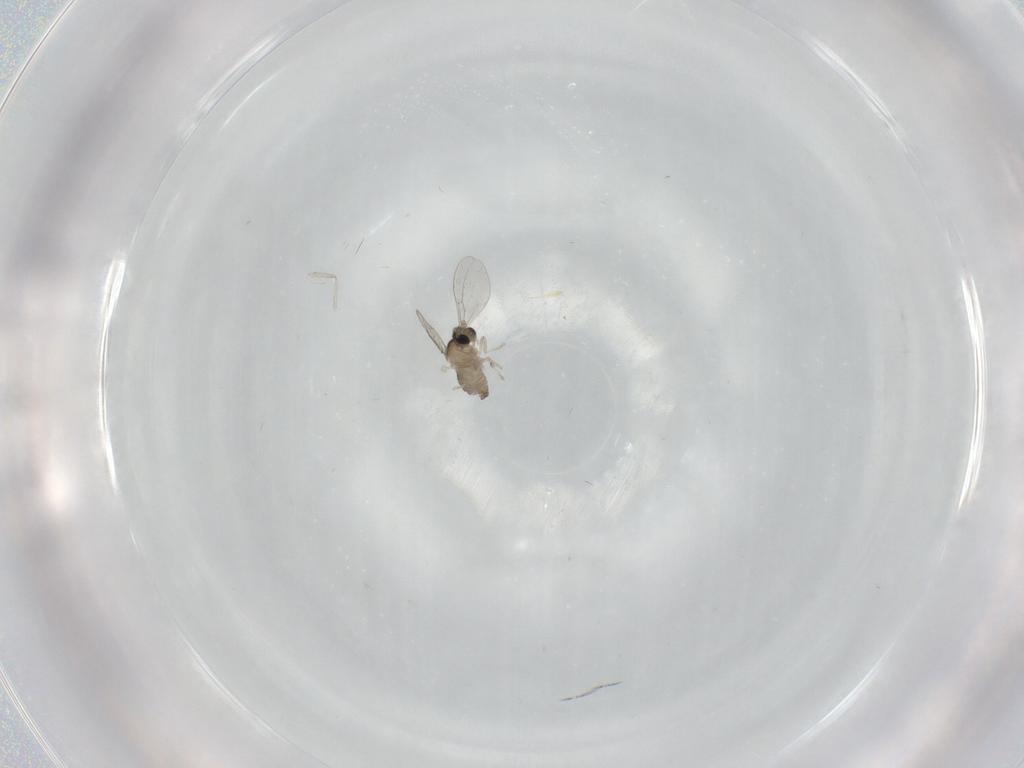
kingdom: Animalia
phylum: Arthropoda
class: Insecta
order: Diptera
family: Cecidomyiidae
